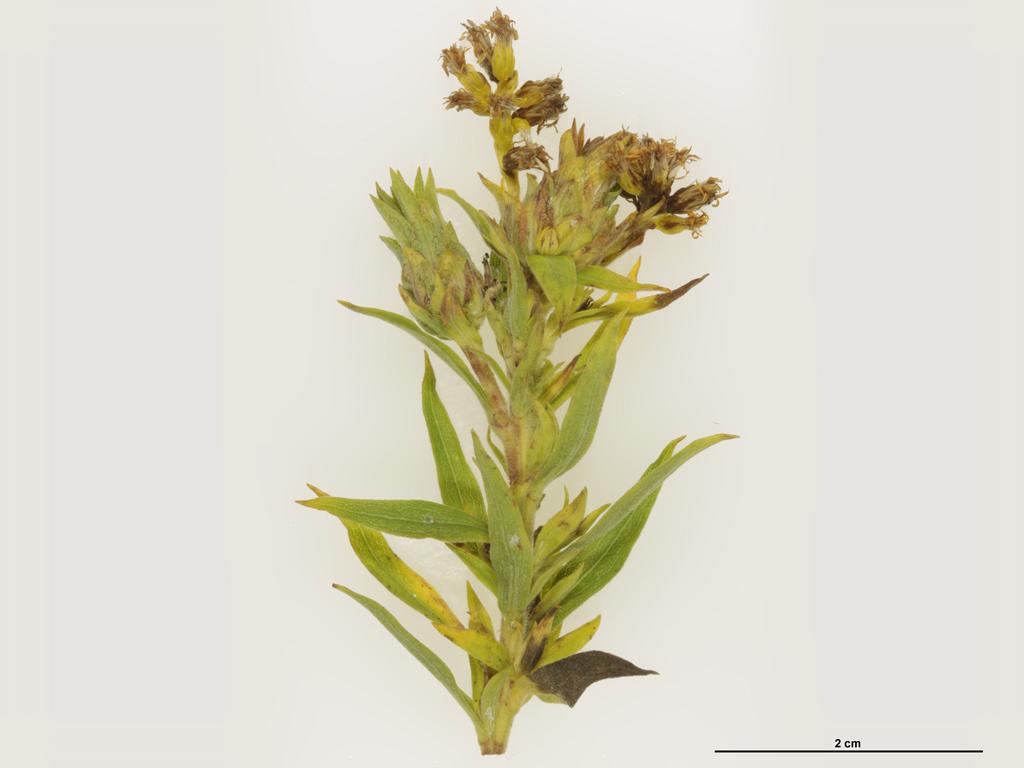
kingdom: Animalia
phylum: Arthropoda
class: Insecta
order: Hymenoptera
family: Torymidae
